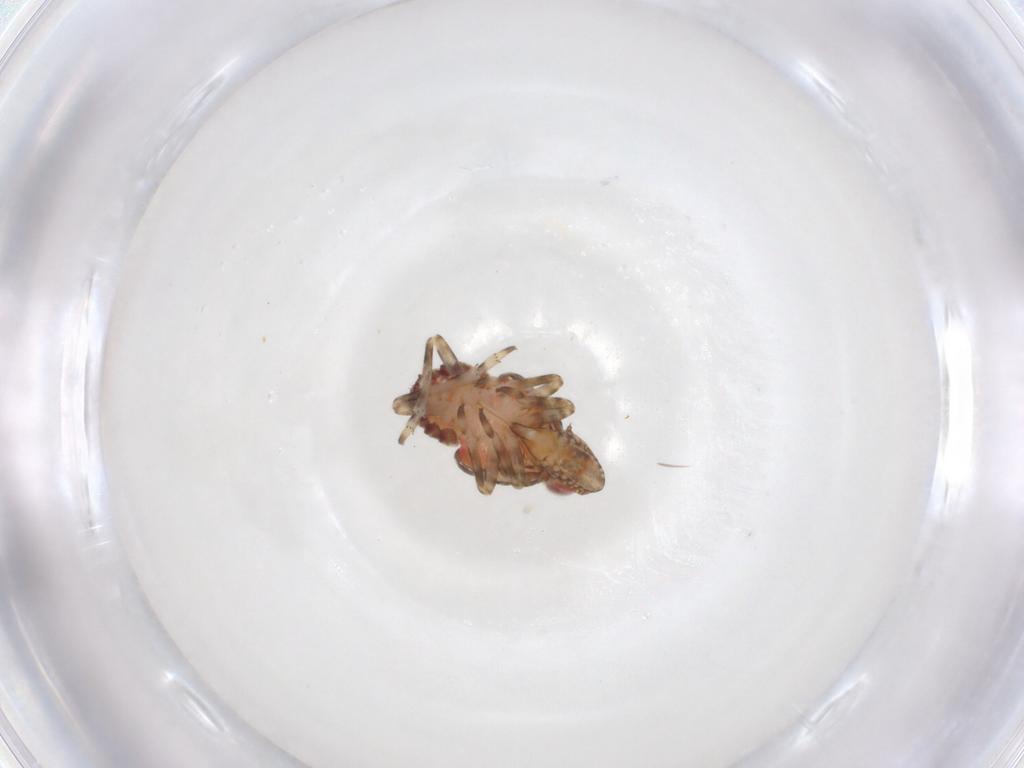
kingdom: Animalia
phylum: Arthropoda
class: Insecta
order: Hemiptera
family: Tropiduchidae
